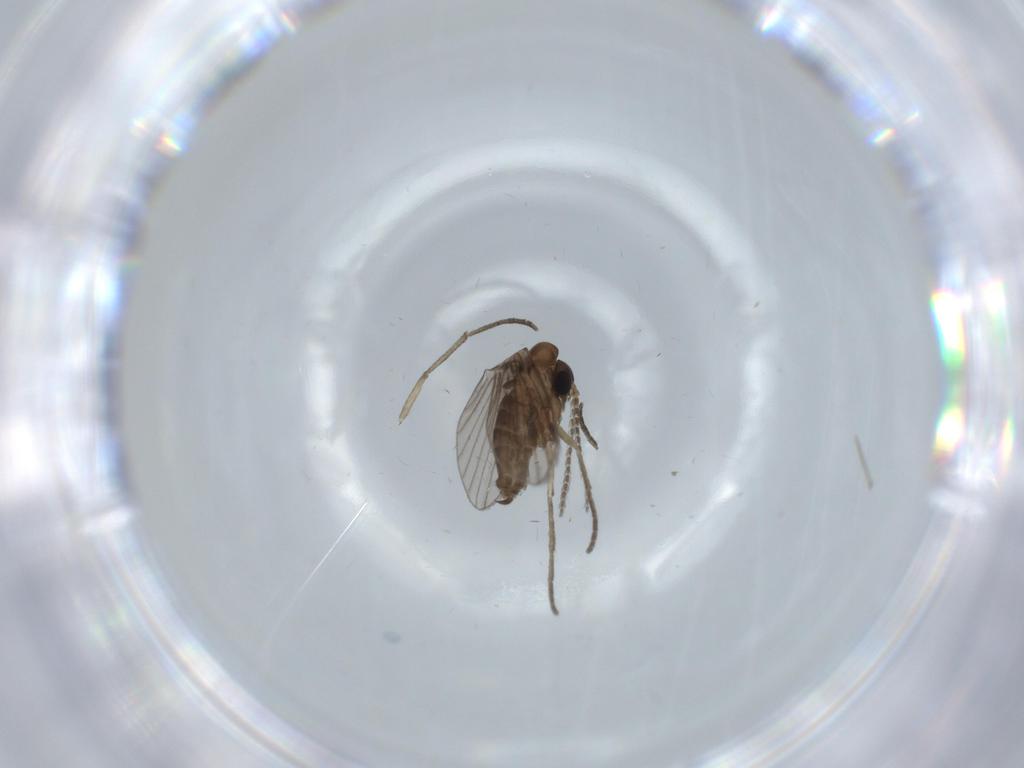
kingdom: Animalia
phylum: Arthropoda
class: Insecta
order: Diptera
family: Psychodidae
